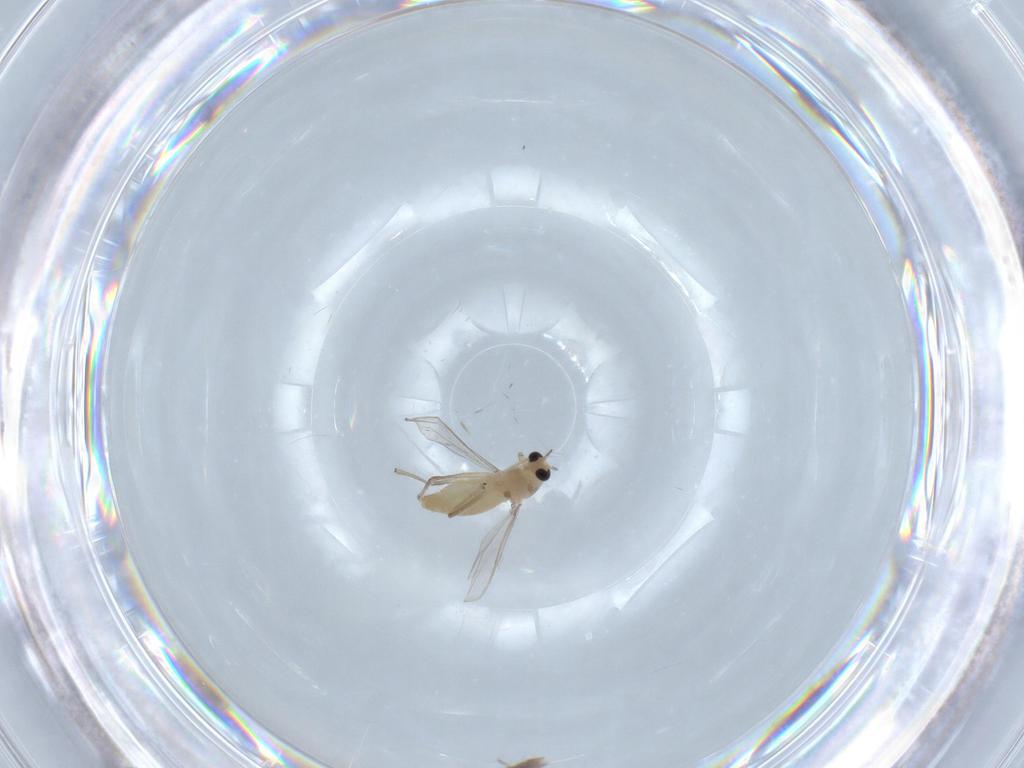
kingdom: Animalia
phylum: Arthropoda
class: Insecta
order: Diptera
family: Chironomidae
